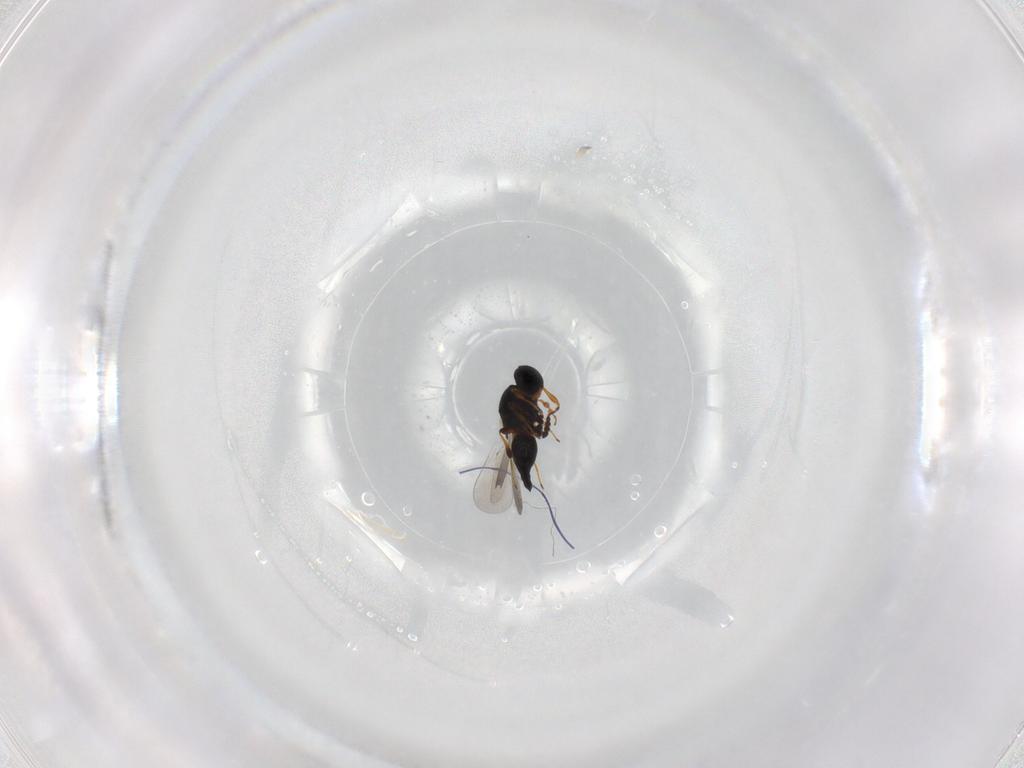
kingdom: Animalia
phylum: Arthropoda
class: Insecta
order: Hymenoptera
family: Platygastridae
